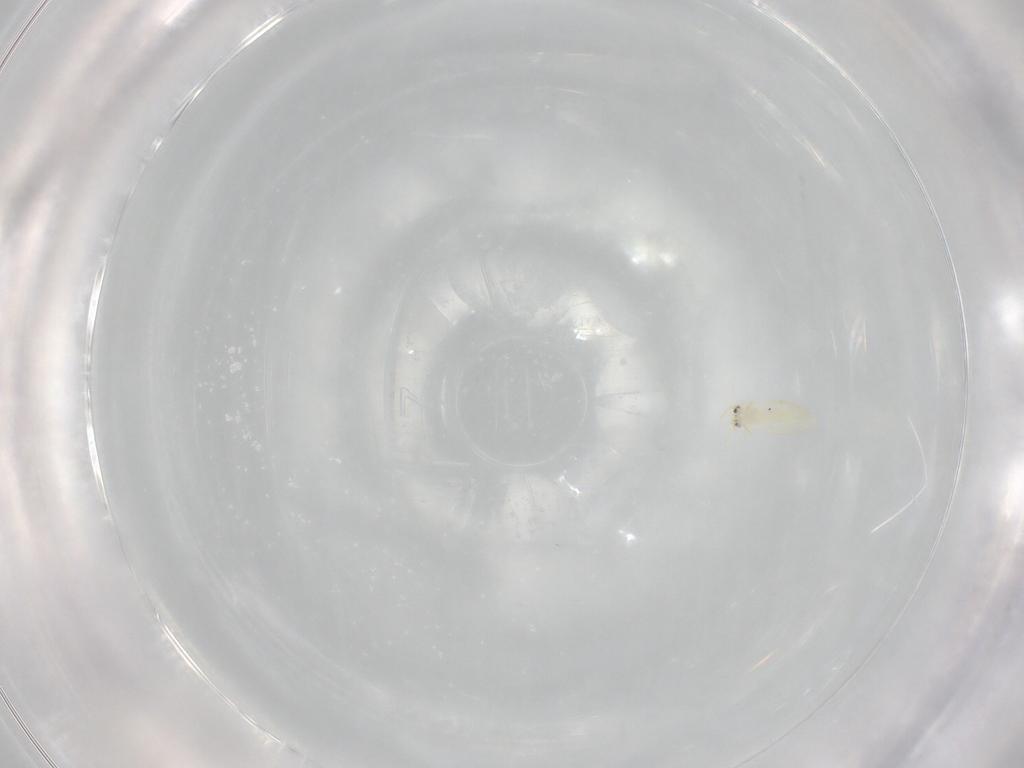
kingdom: Animalia
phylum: Arthropoda
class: Insecta
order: Hemiptera
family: Aleyrodidae
